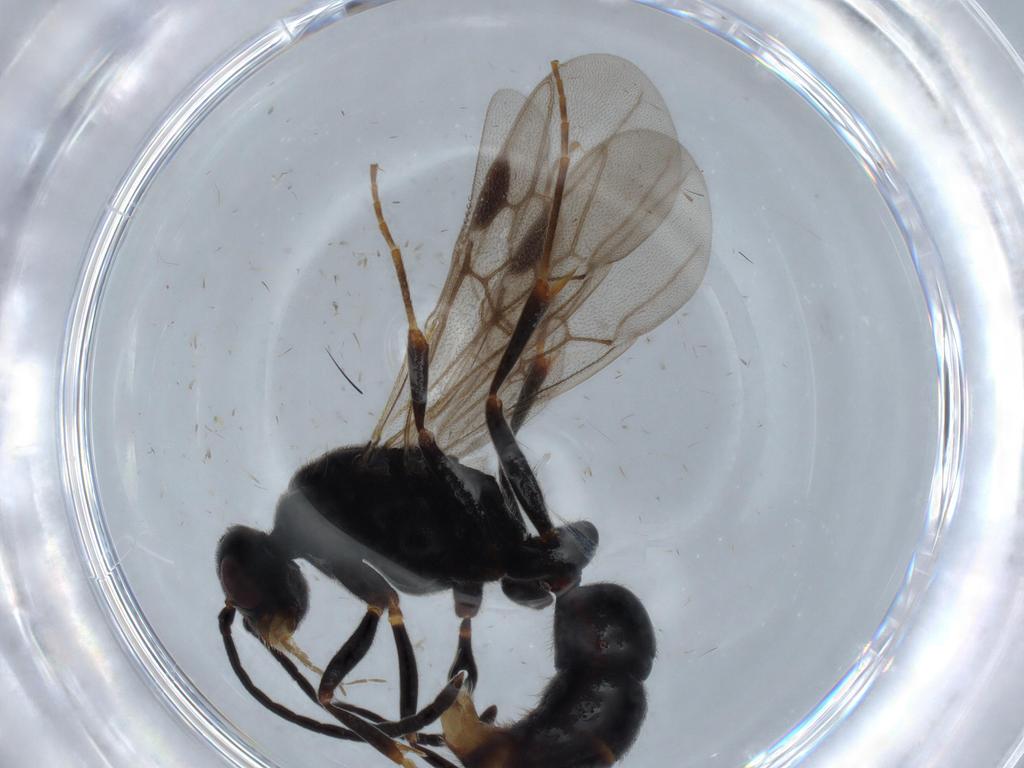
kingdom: Animalia
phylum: Arthropoda
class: Insecta
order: Hymenoptera
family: Formicidae
